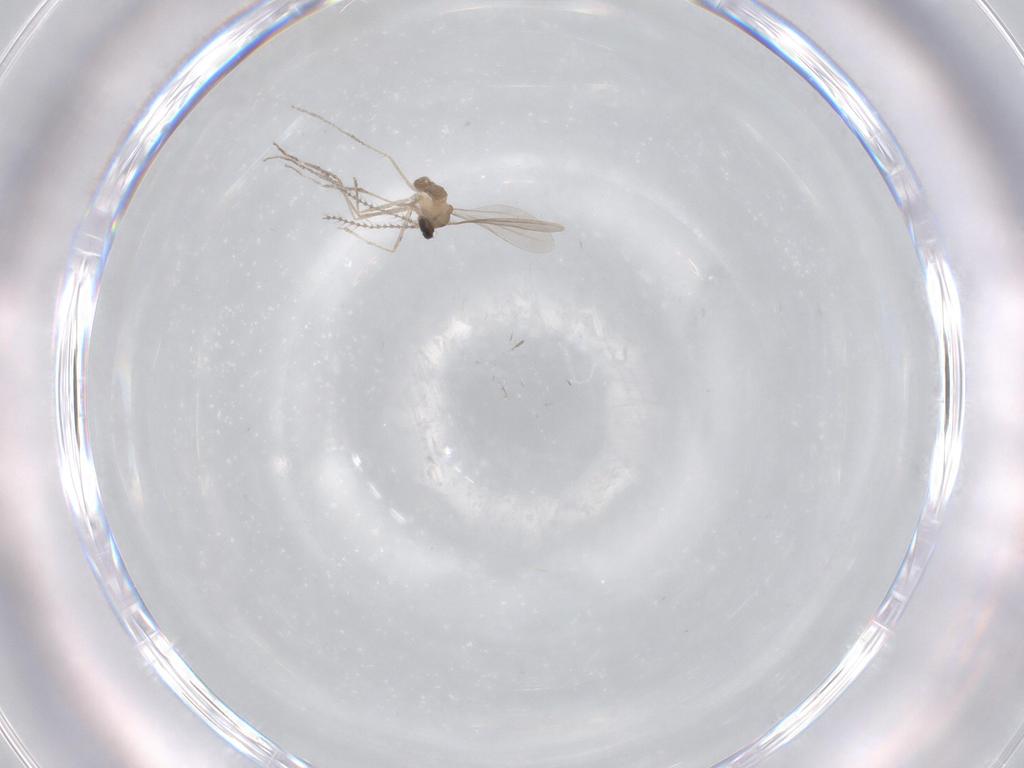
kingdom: Animalia
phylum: Arthropoda
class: Insecta
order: Diptera
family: Cecidomyiidae
